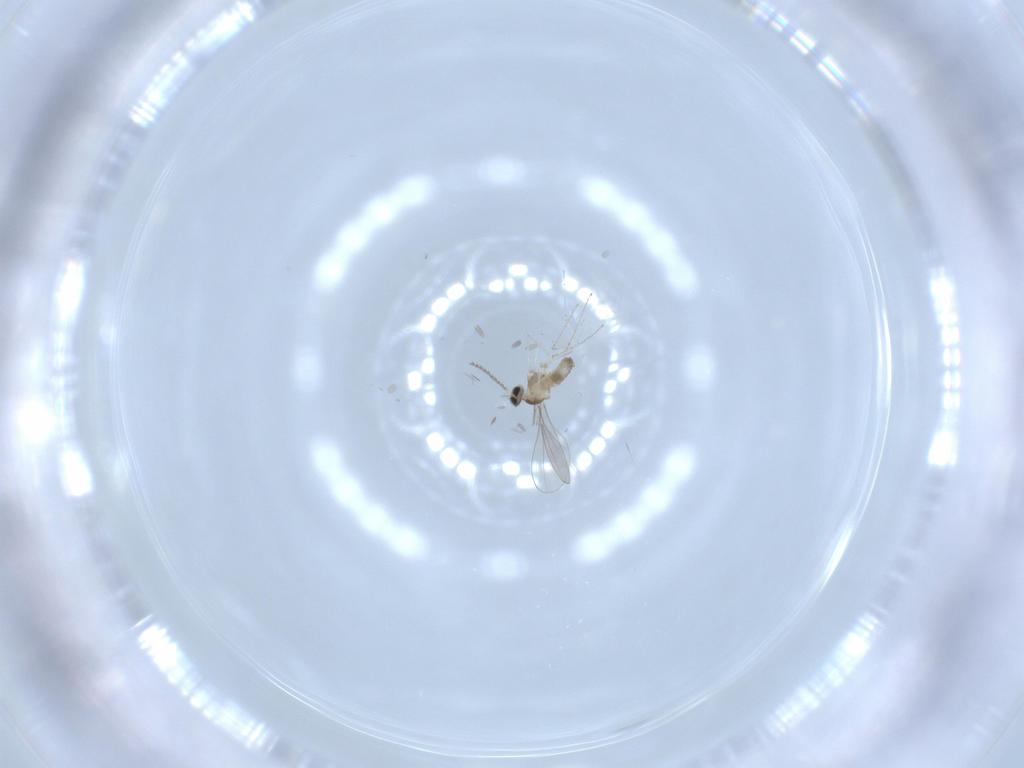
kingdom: Animalia
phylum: Arthropoda
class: Insecta
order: Diptera
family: Cecidomyiidae
